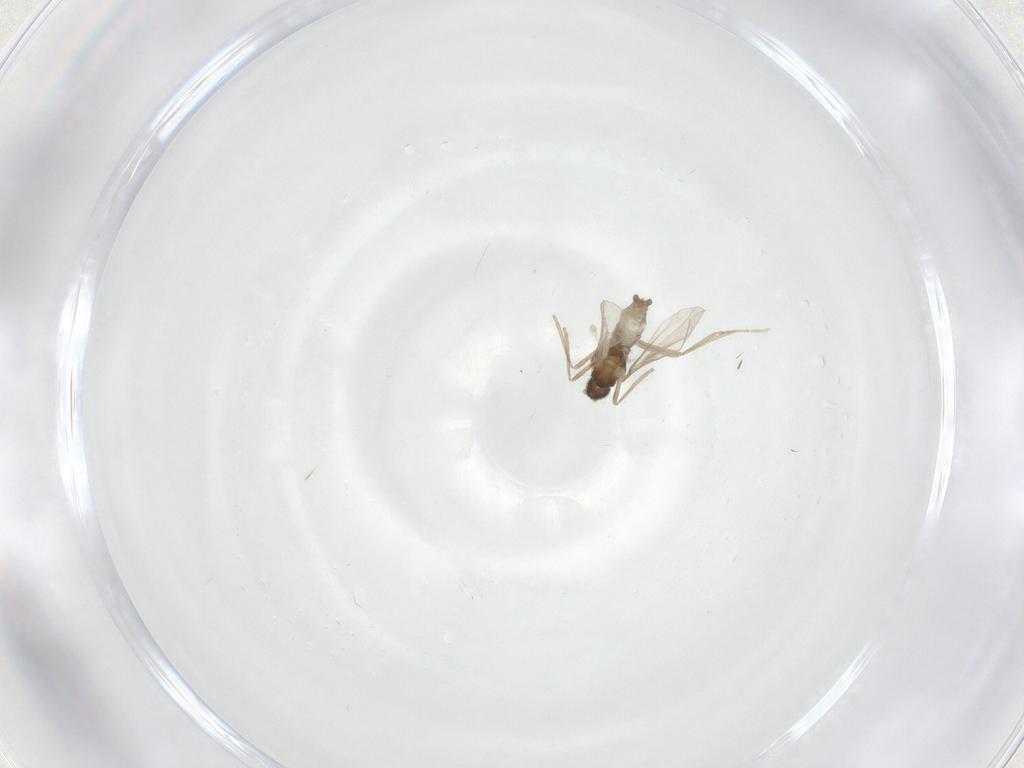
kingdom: Animalia
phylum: Arthropoda
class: Insecta
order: Diptera
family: Cecidomyiidae
